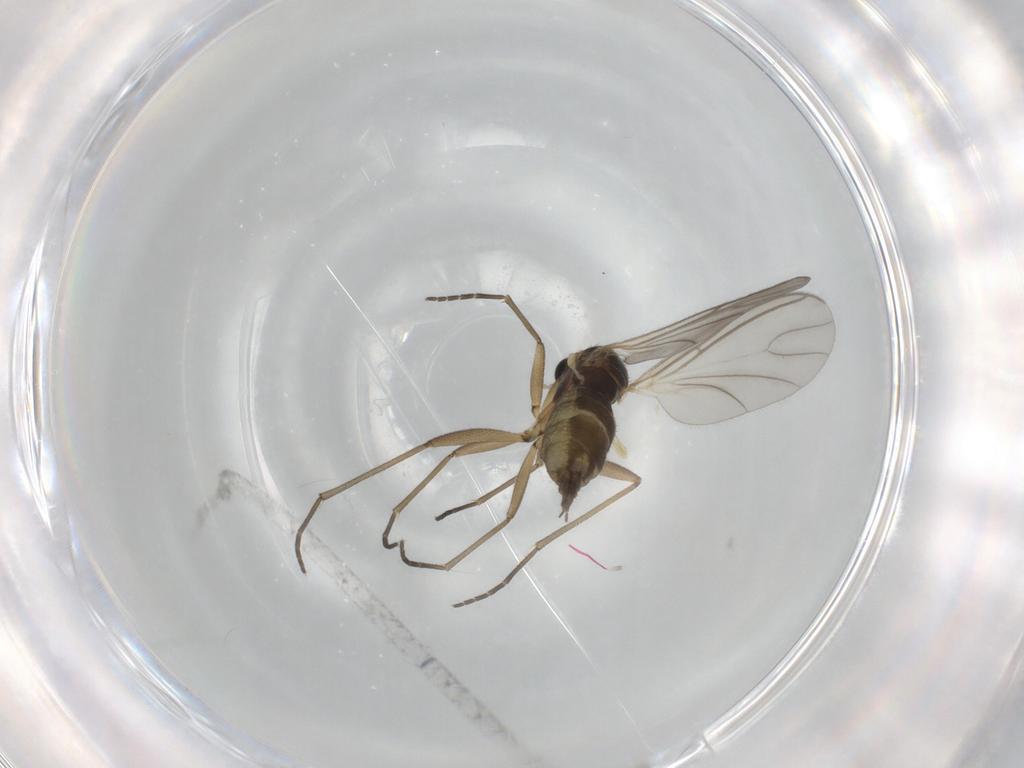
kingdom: Animalia
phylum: Arthropoda
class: Insecta
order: Diptera
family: Phoridae
